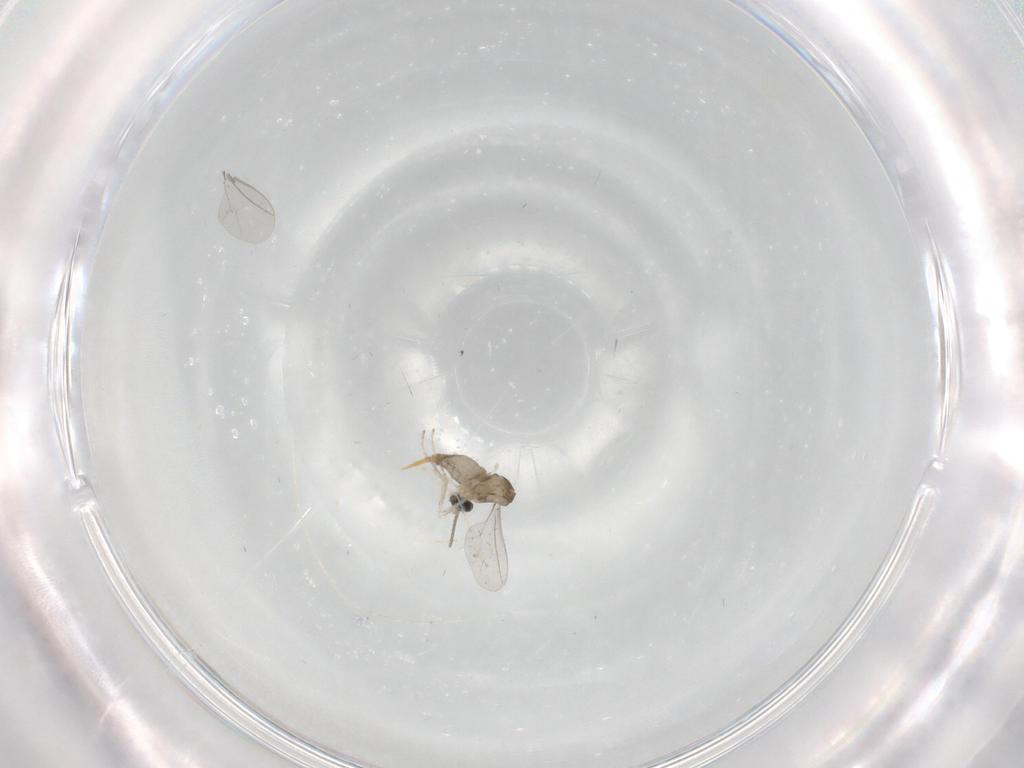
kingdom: Animalia
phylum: Arthropoda
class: Insecta
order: Diptera
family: Cecidomyiidae
